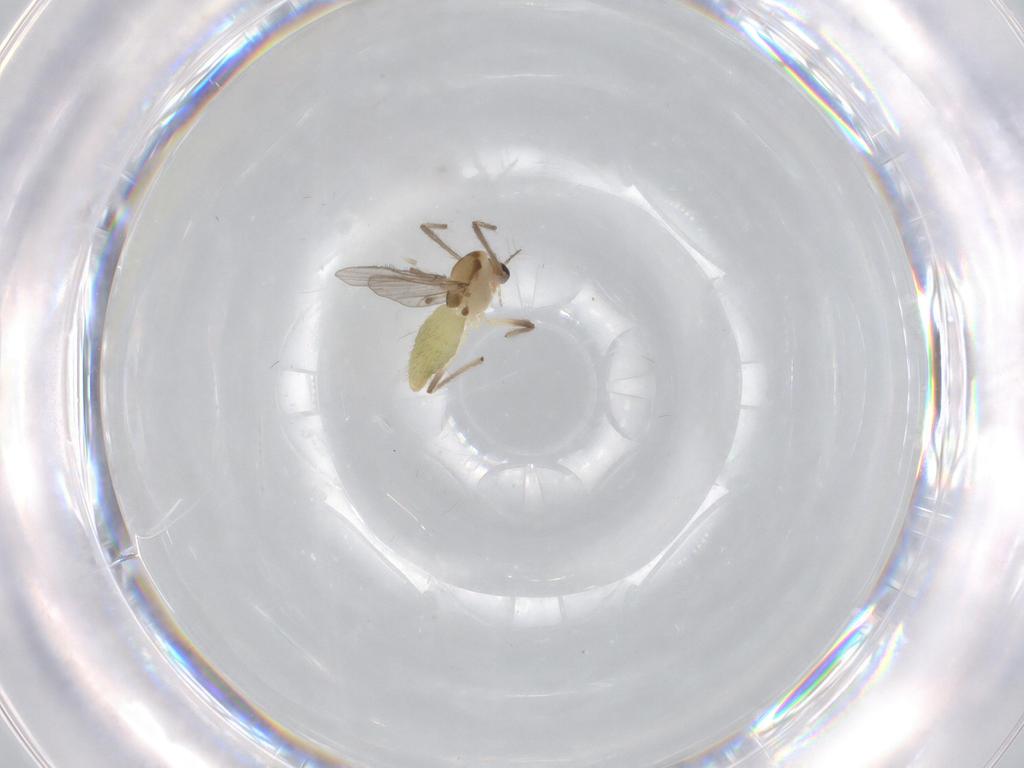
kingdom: Animalia
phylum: Arthropoda
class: Insecta
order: Diptera
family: Chironomidae
